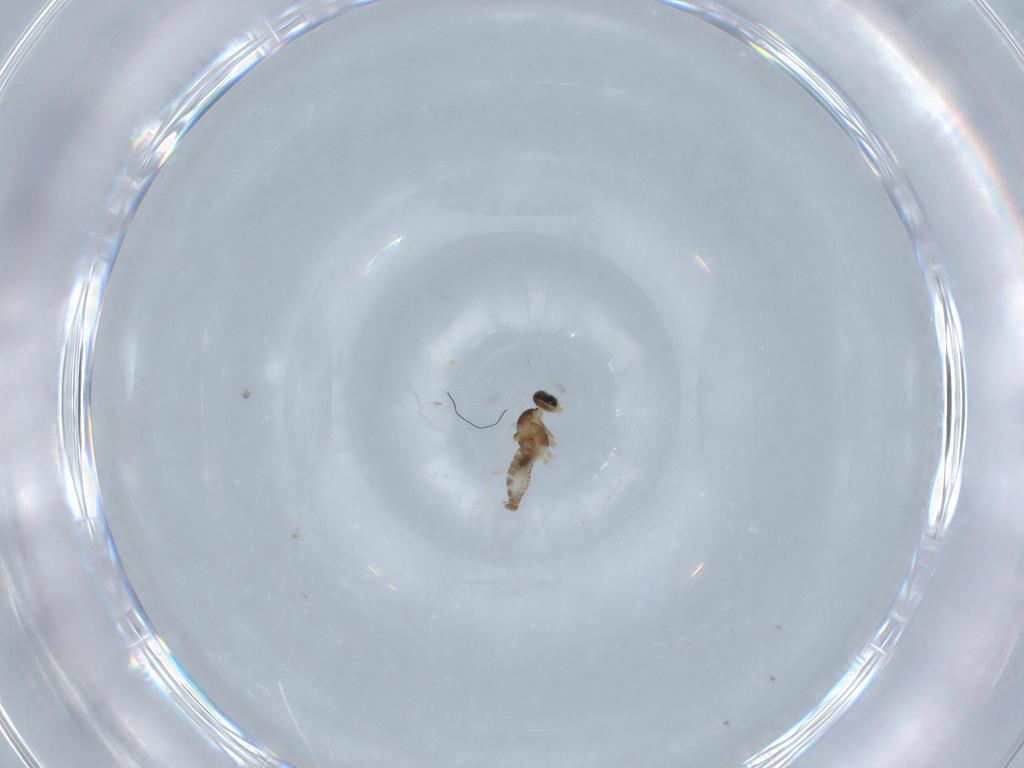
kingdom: Animalia
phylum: Arthropoda
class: Insecta
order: Diptera
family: Cecidomyiidae
